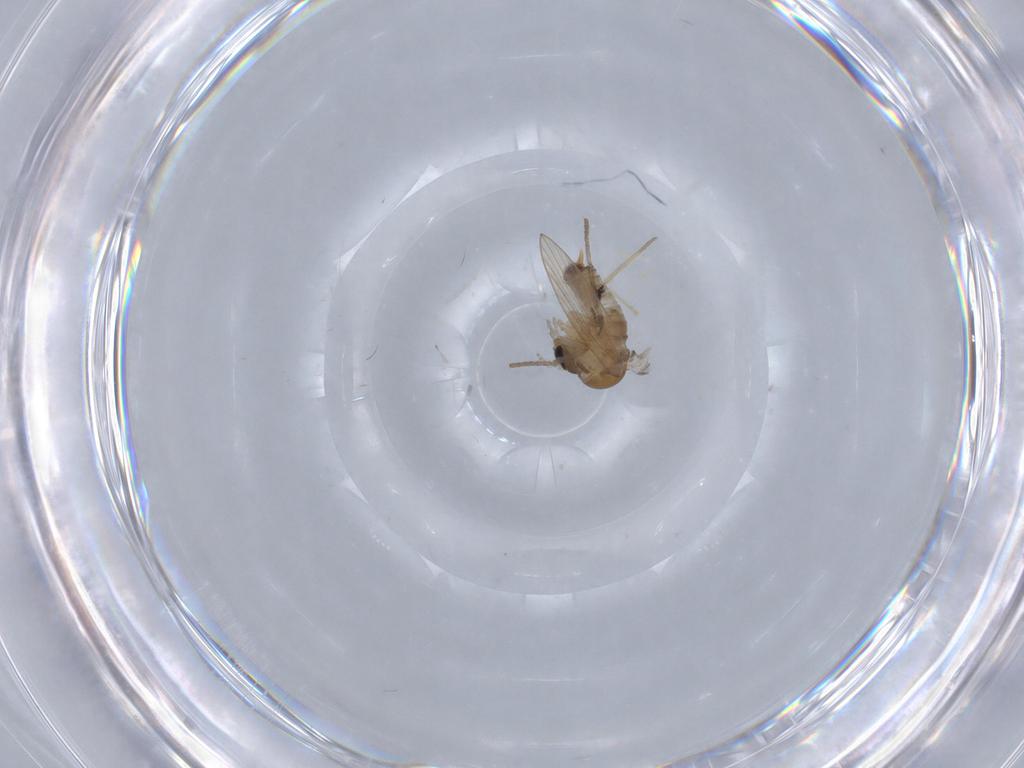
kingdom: Animalia
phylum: Arthropoda
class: Insecta
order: Diptera
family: Chironomidae
